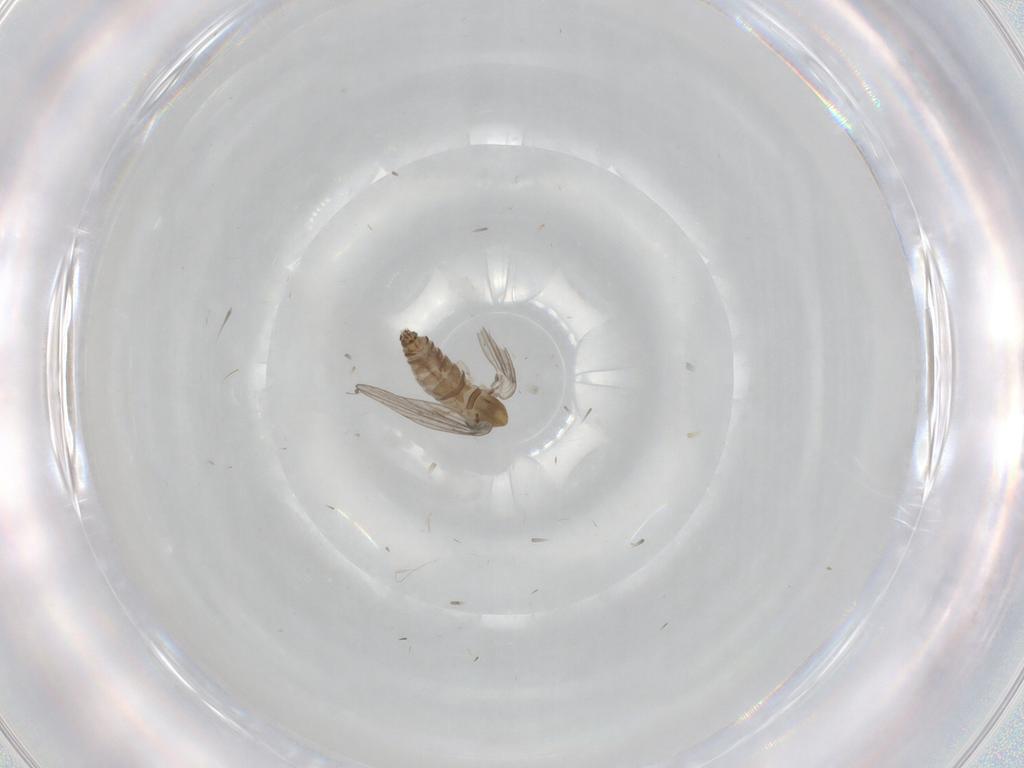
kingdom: Animalia
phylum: Arthropoda
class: Insecta
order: Diptera
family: Psychodidae
